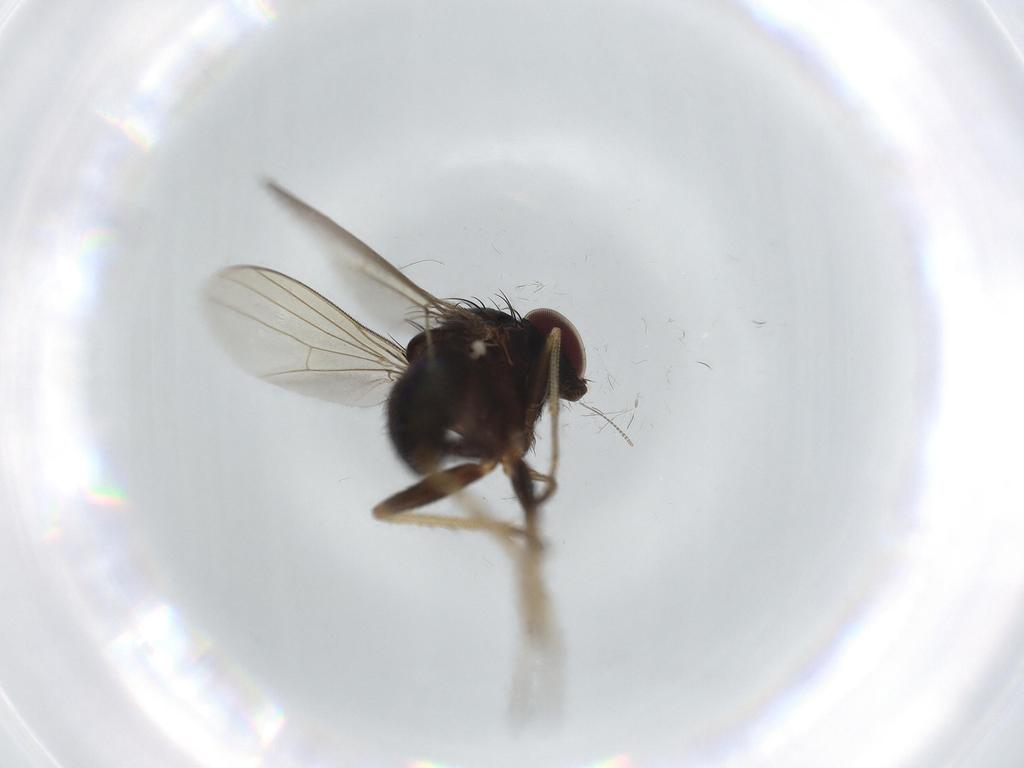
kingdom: Animalia
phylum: Arthropoda
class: Insecta
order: Diptera
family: Dolichopodidae
